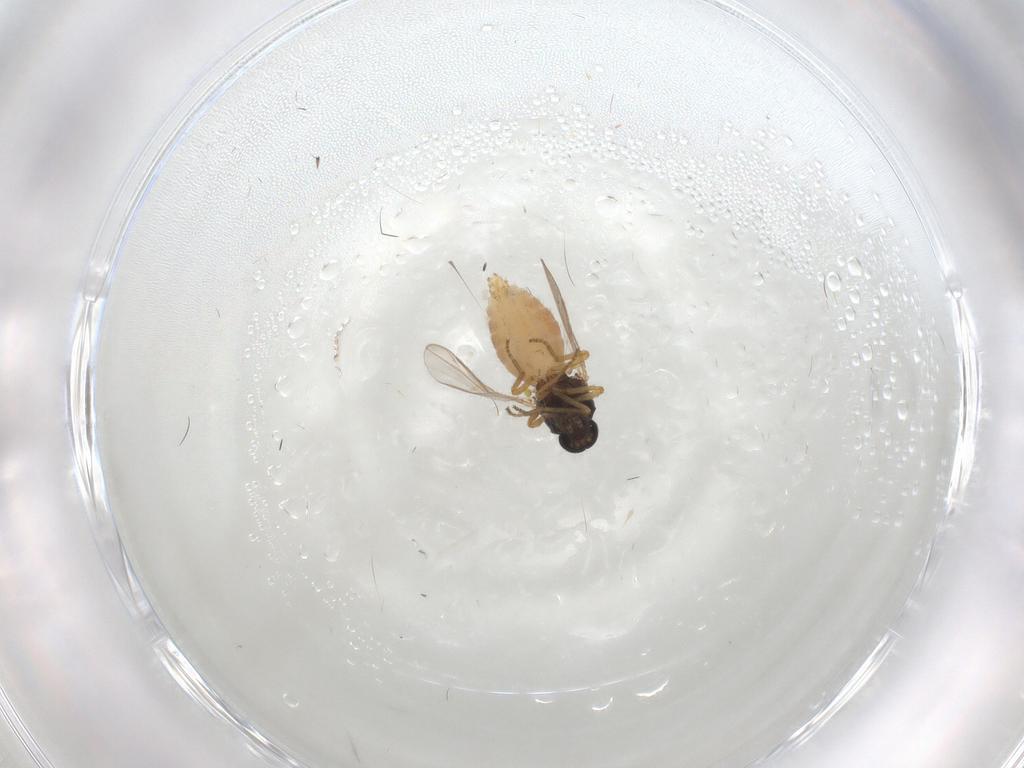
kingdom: Animalia
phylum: Arthropoda
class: Insecta
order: Diptera
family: Ceratopogonidae
